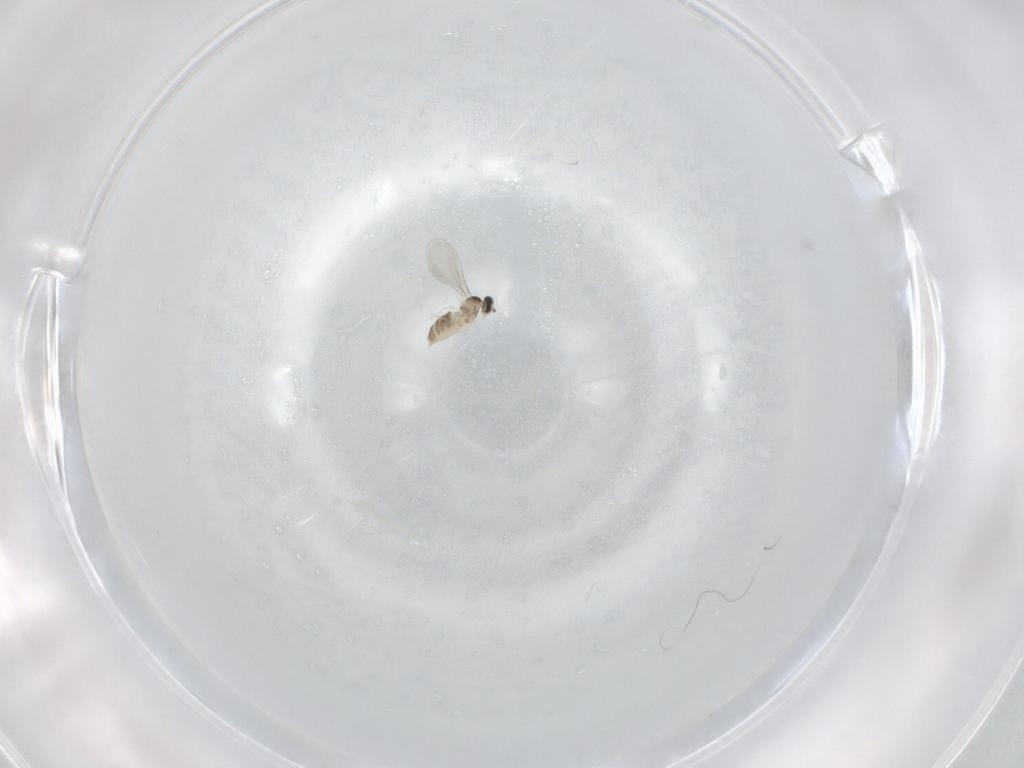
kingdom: Animalia
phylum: Arthropoda
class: Insecta
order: Diptera
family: Cecidomyiidae
